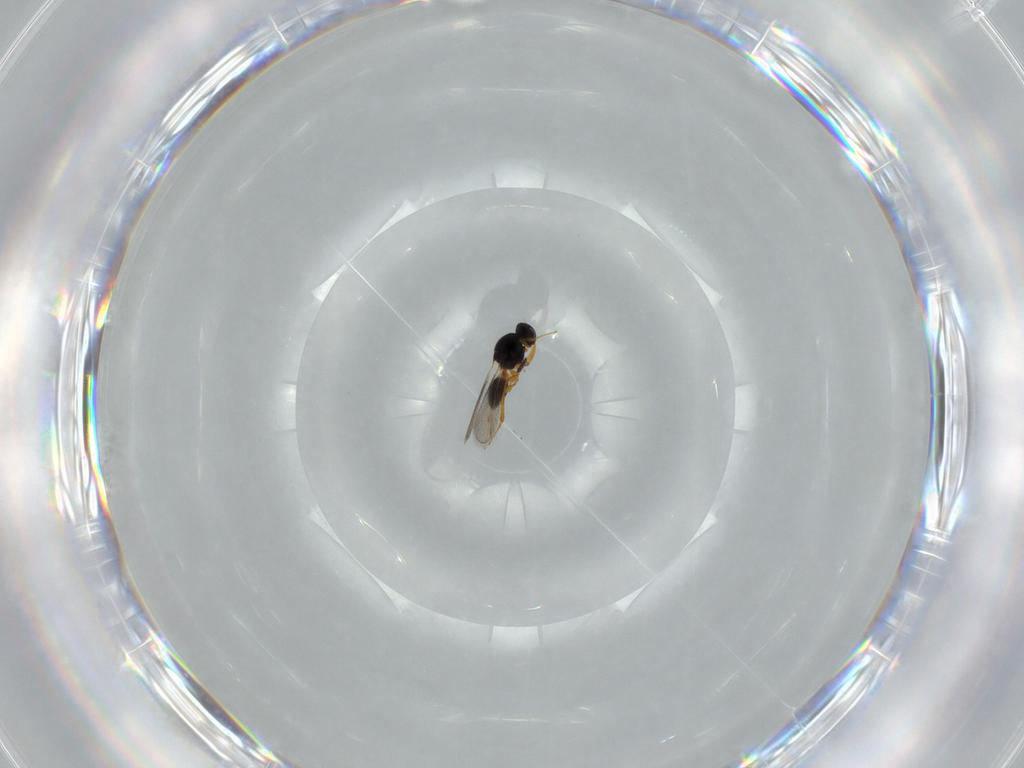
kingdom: Animalia
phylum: Arthropoda
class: Insecta
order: Hymenoptera
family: Platygastridae
